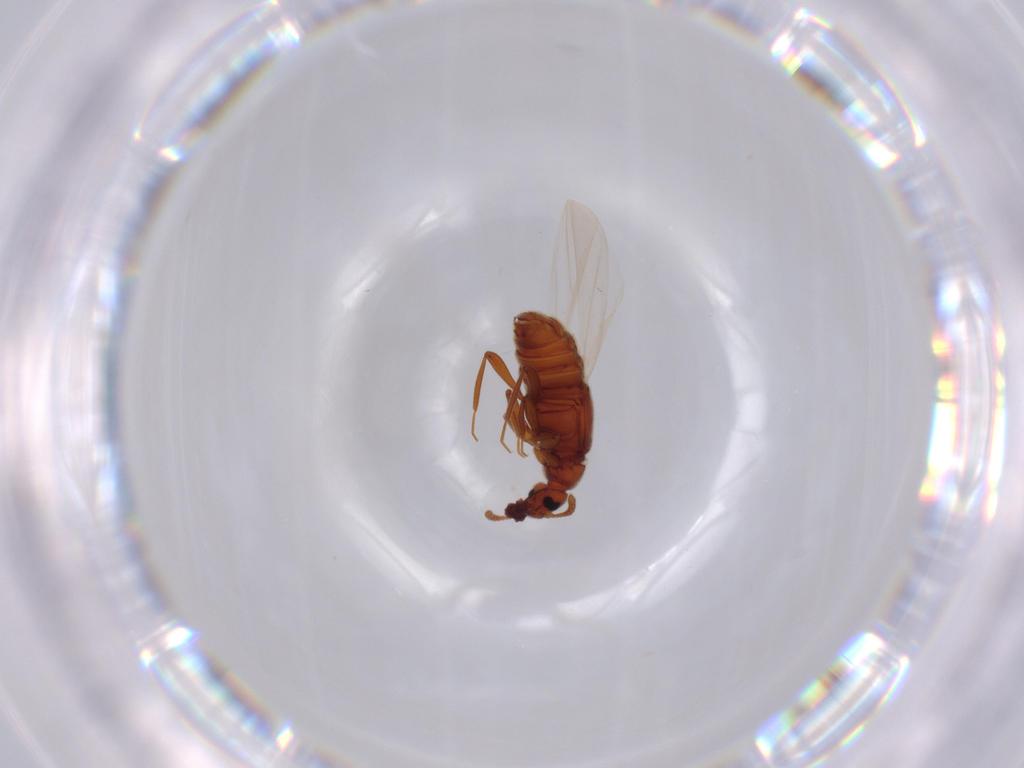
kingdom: Animalia
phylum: Arthropoda
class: Insecta
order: Coleoptera
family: Staphylinidae
